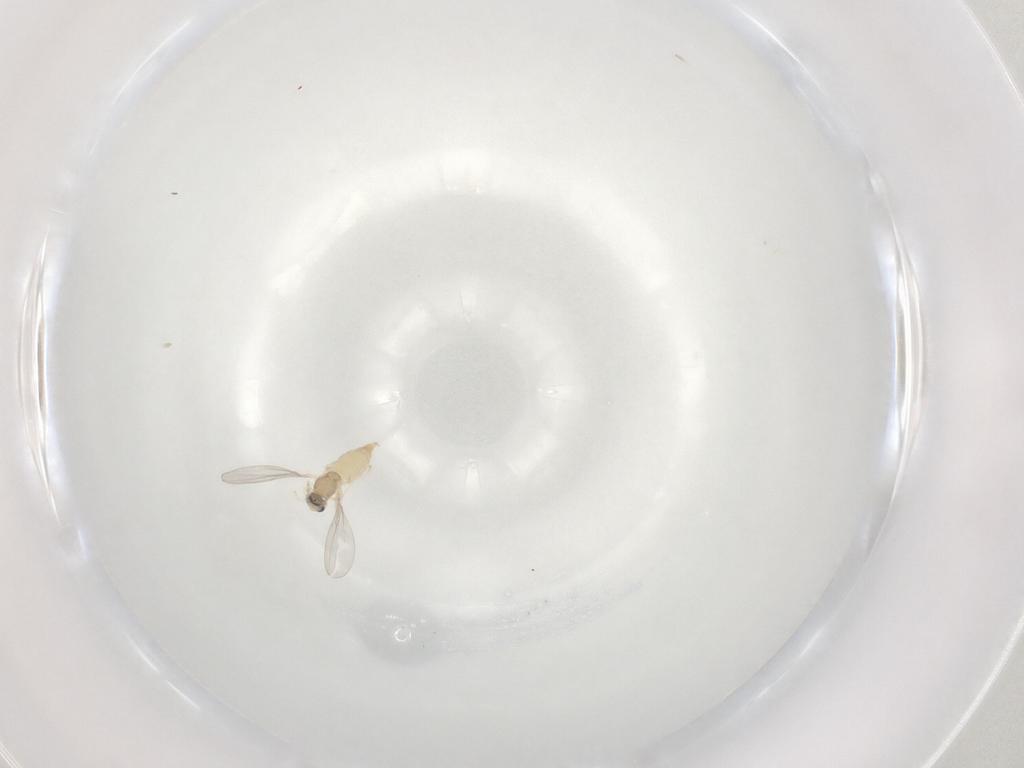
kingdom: Animalia
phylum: Arthropoda
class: Insecta
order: Diptera
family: Cecidomyiidae
